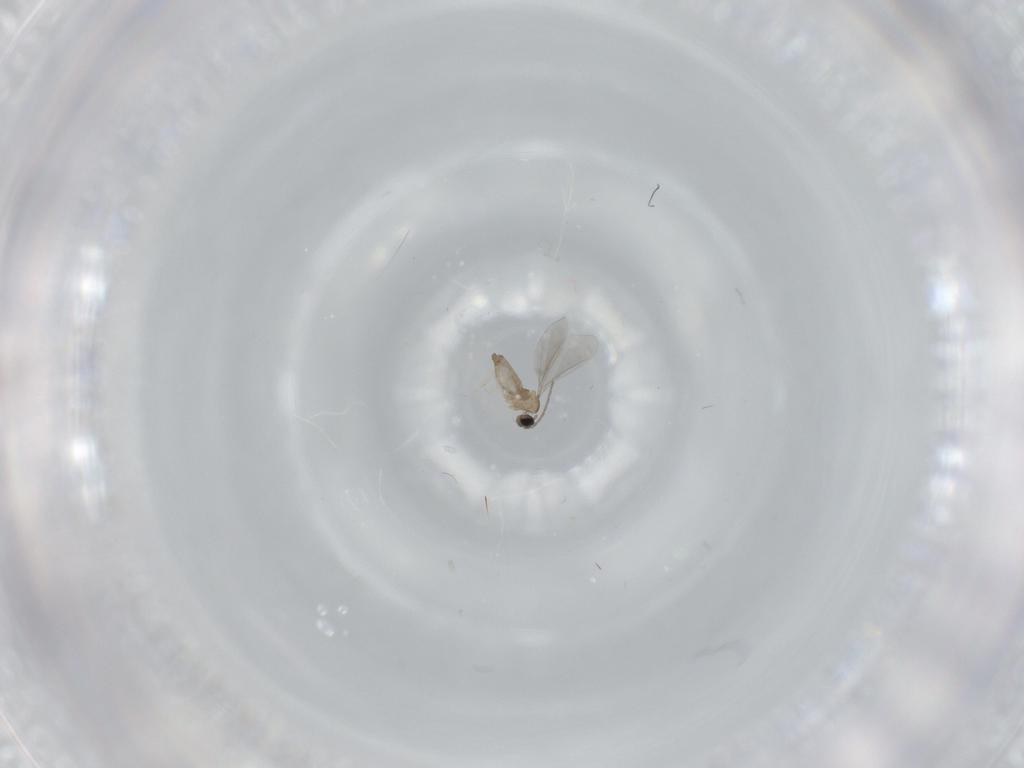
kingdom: Animalia
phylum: Arthropoda
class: Insecta
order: Diptera
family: Cecidomyiidae
